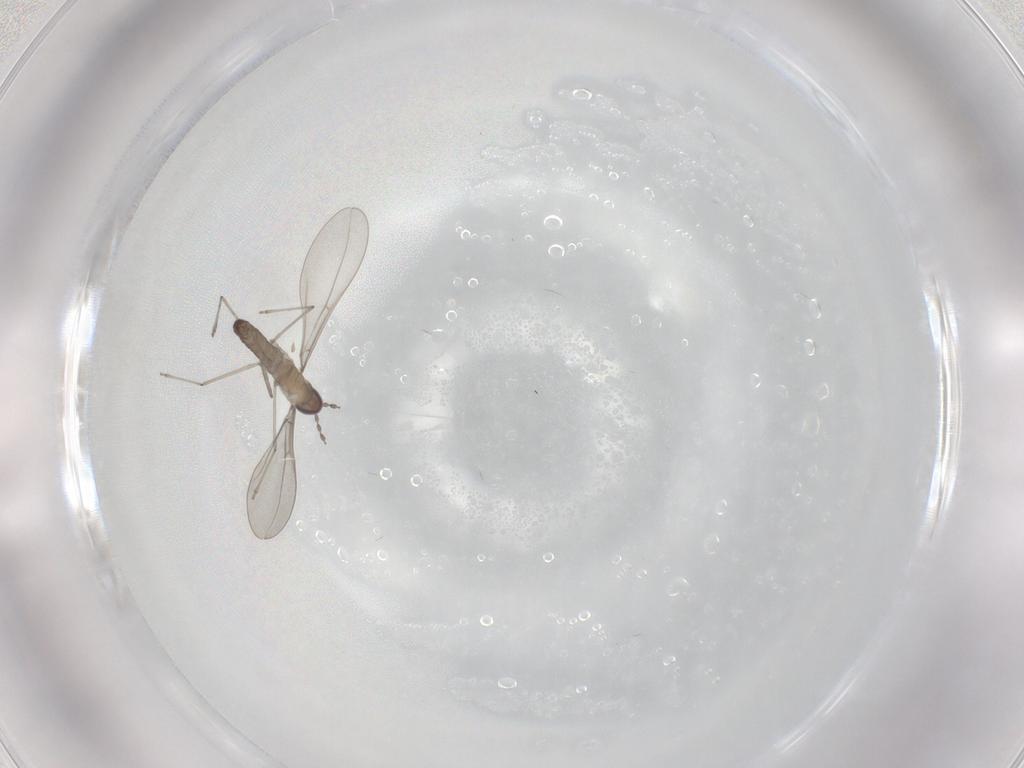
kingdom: Animalia
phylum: Arthropoda
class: Insecta
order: Diptera
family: Cecidomyiidae
